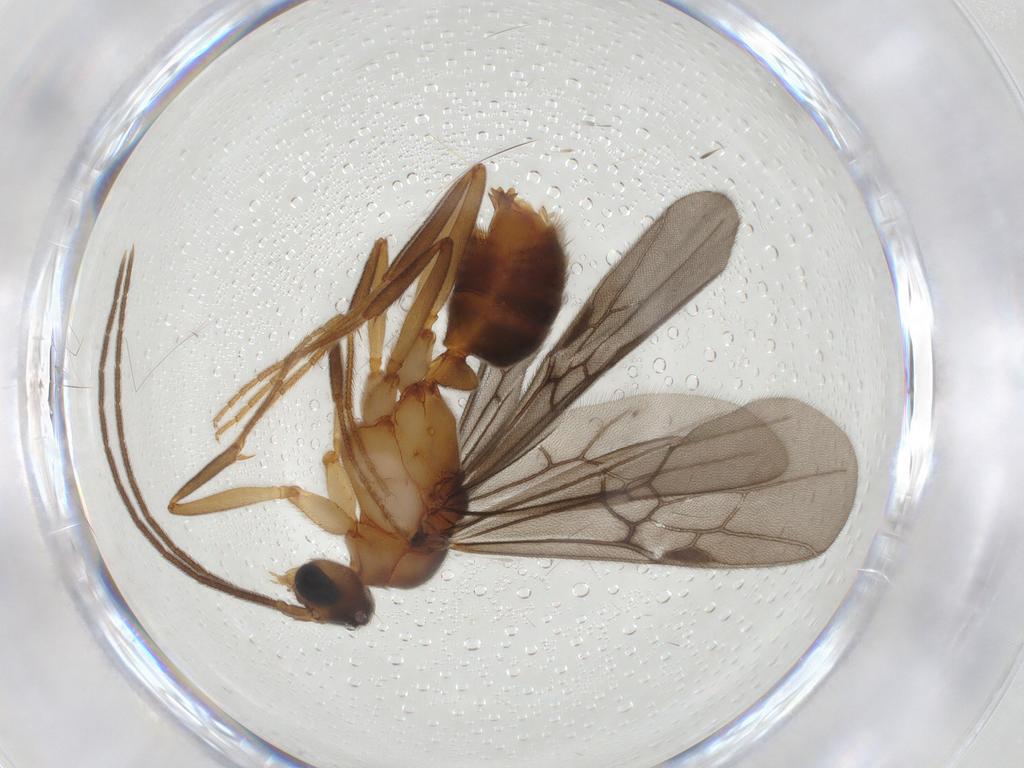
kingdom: Animalia
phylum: Arthropoda
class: Insecta
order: Hymenoptera
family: Formicidae
